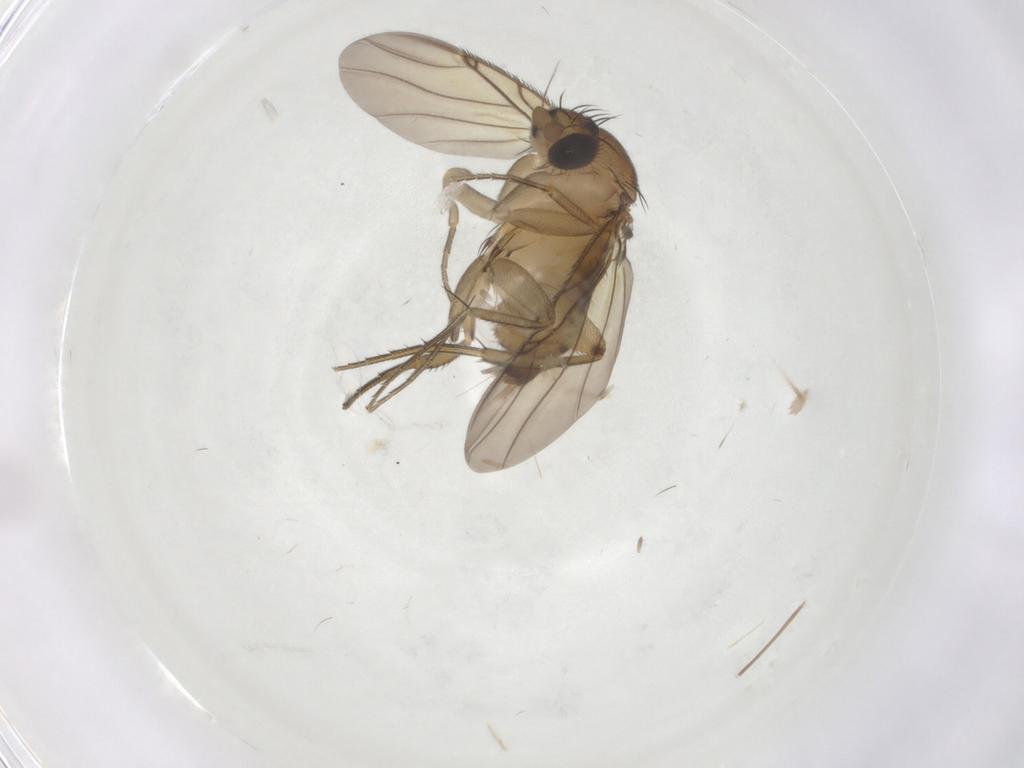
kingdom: Animalia
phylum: Arthropoda
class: Insecta
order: Diptera
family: Phoridae
